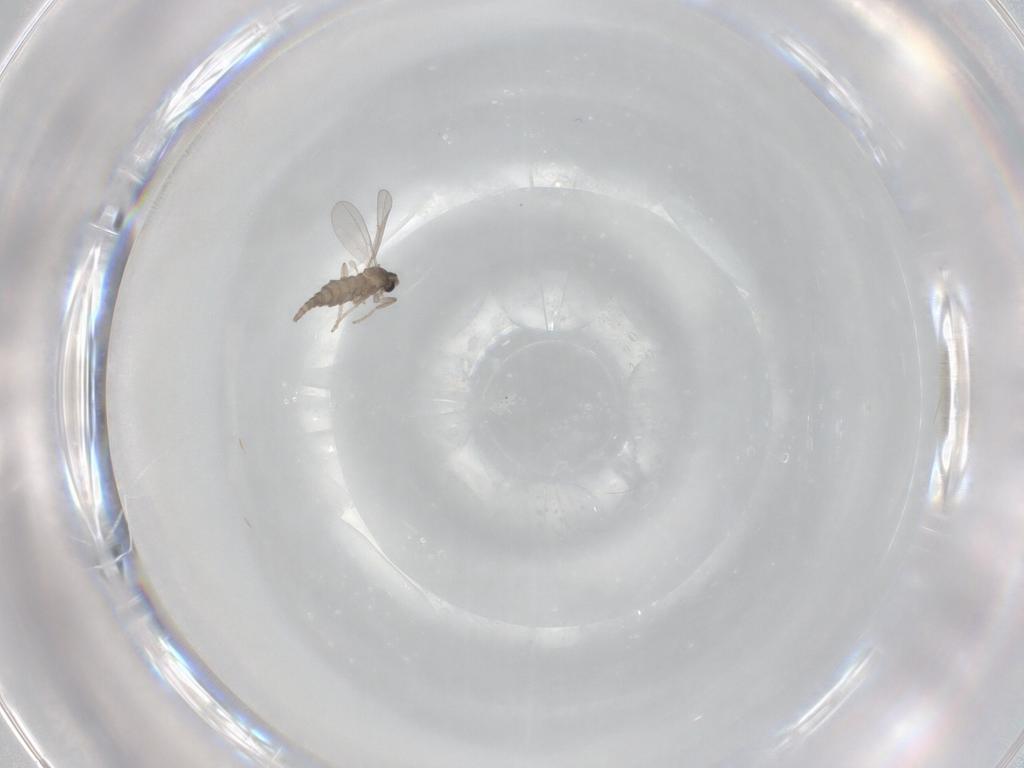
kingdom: Animalia
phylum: Arthropoda
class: Insecta
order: Diptera
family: Cecidomyiidae
